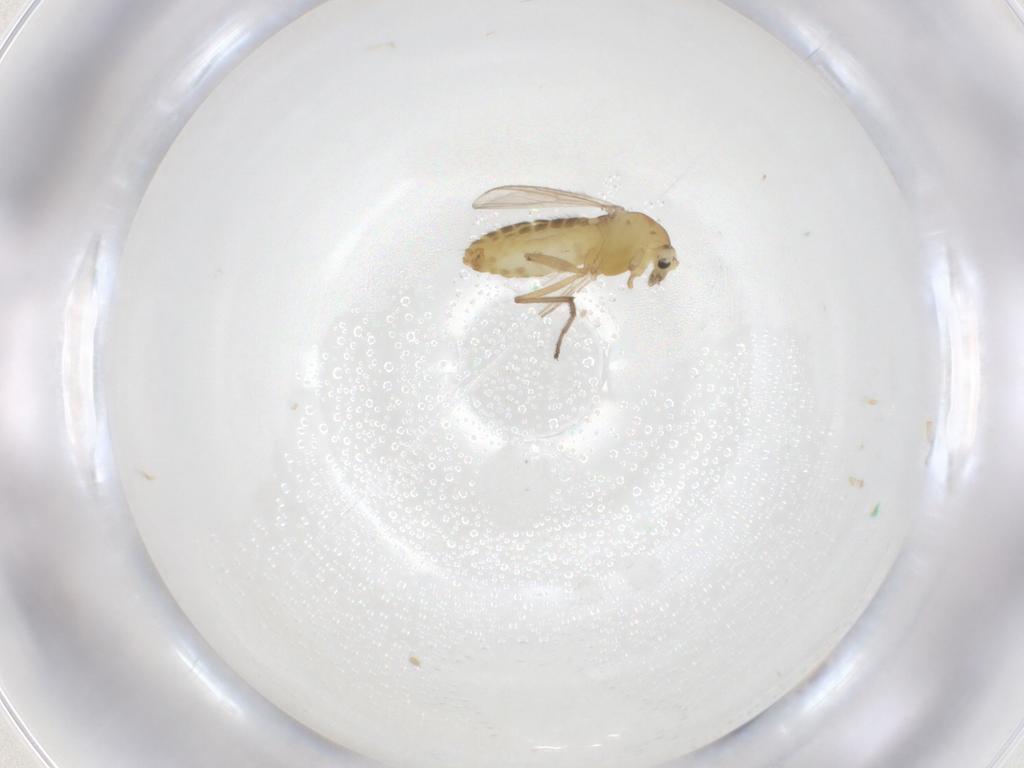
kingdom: Animalia
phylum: Arthropoda
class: Insecta
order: Diptera
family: Chironomidae
